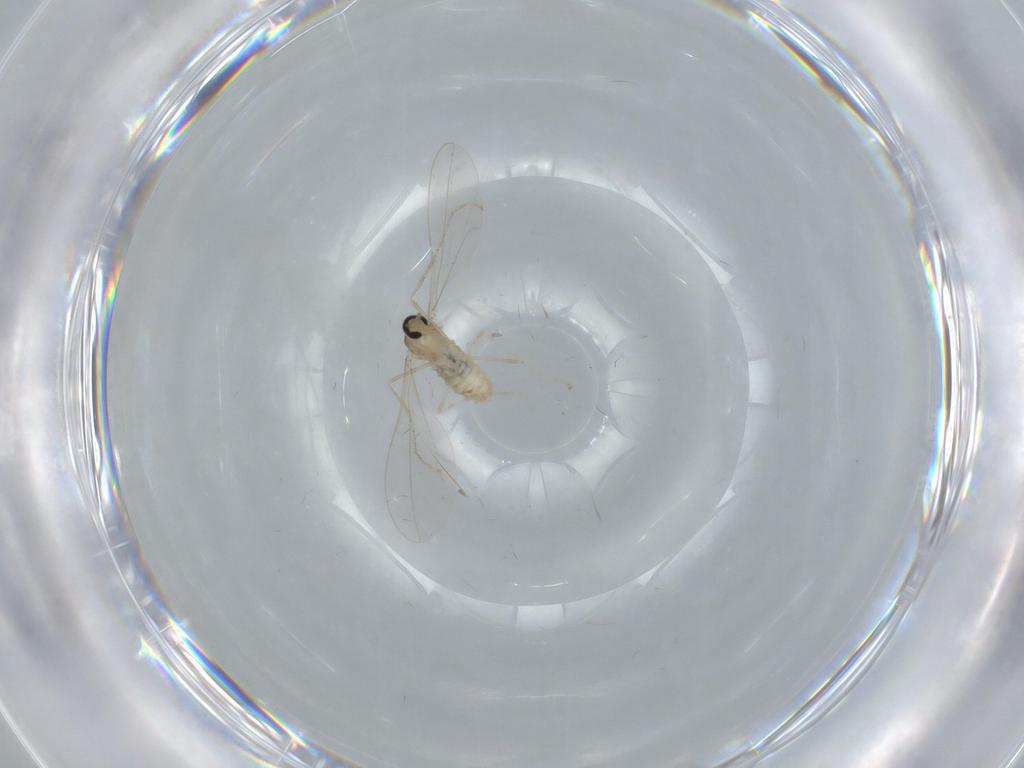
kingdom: Animalia
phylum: Arthropoda
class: Insecta
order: Diptera
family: Cecidomyiidae
